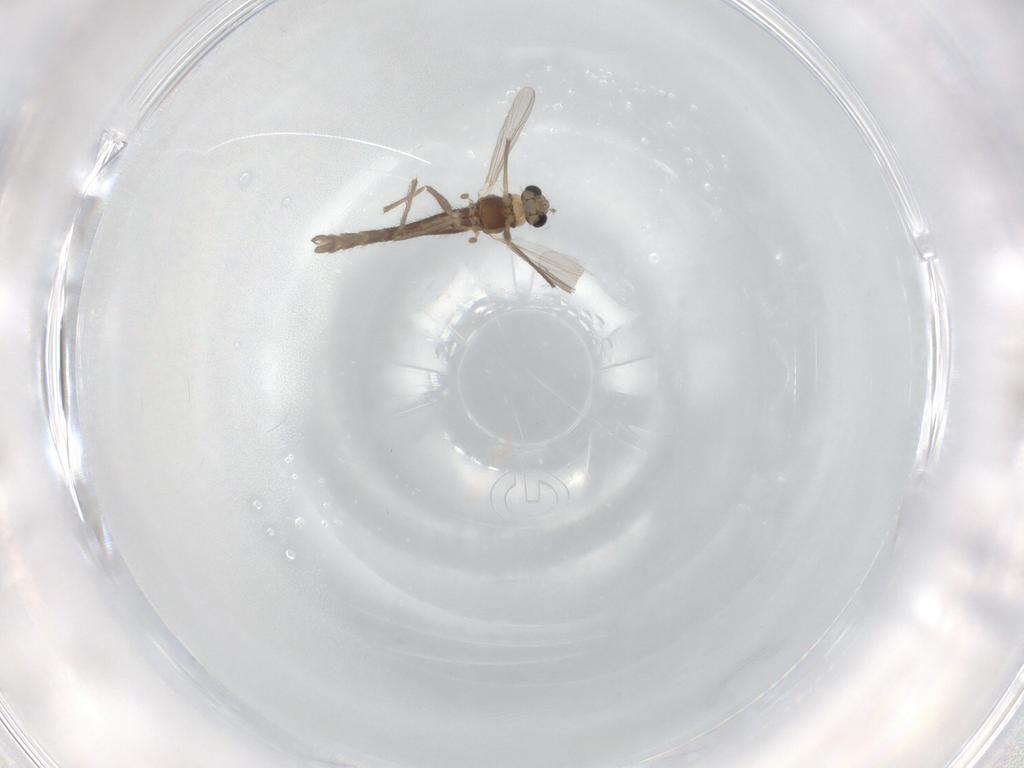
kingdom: Animalia
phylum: Arthropoda
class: Insecta
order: Diptera
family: Chironomidae
